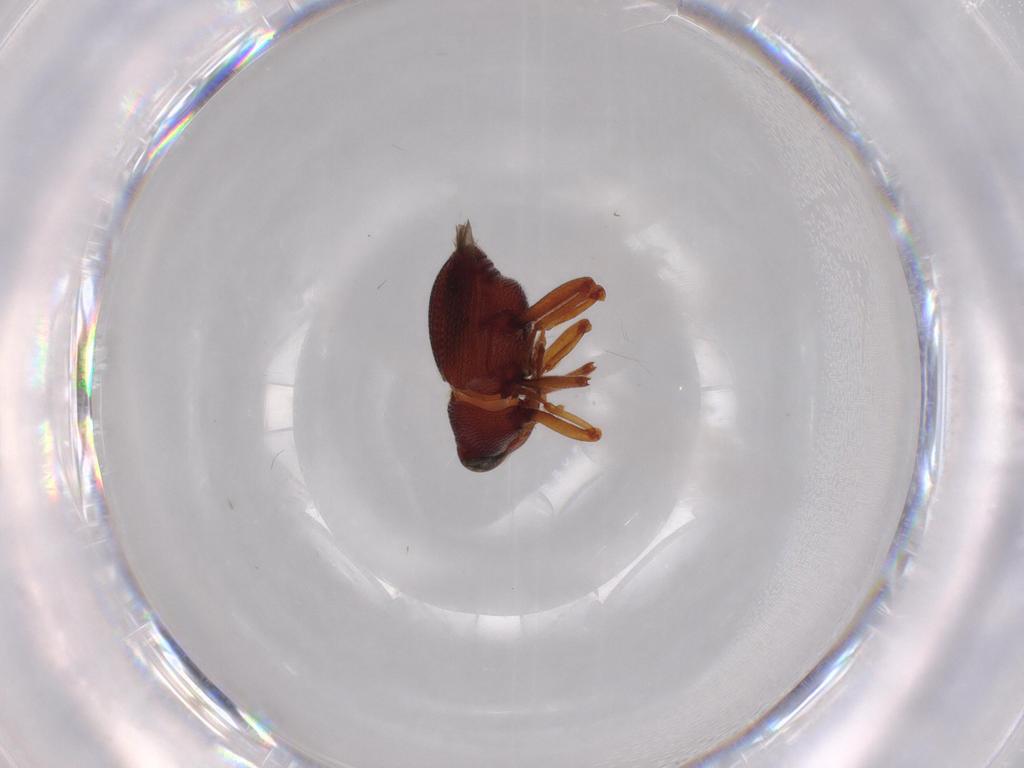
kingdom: Animalia
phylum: Arthropoda
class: Insecta
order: Coleoptera
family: Curculionidae
